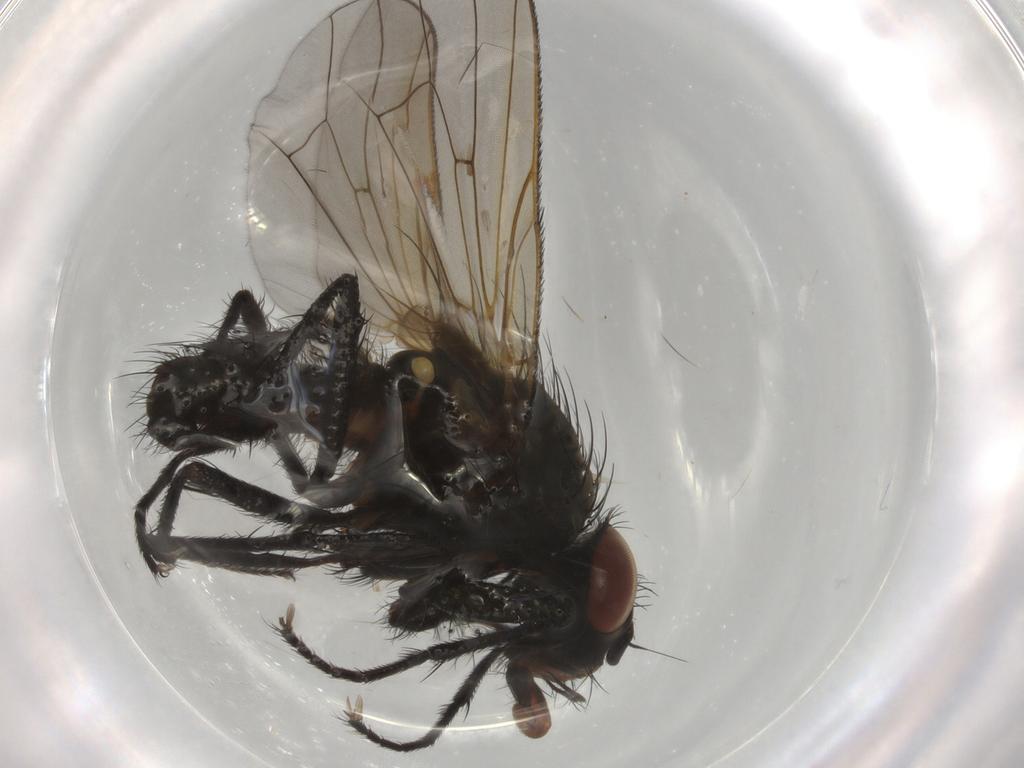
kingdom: Animalia
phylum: Arthropoda
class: Insecta
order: Diptera
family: Anthomyiidae
